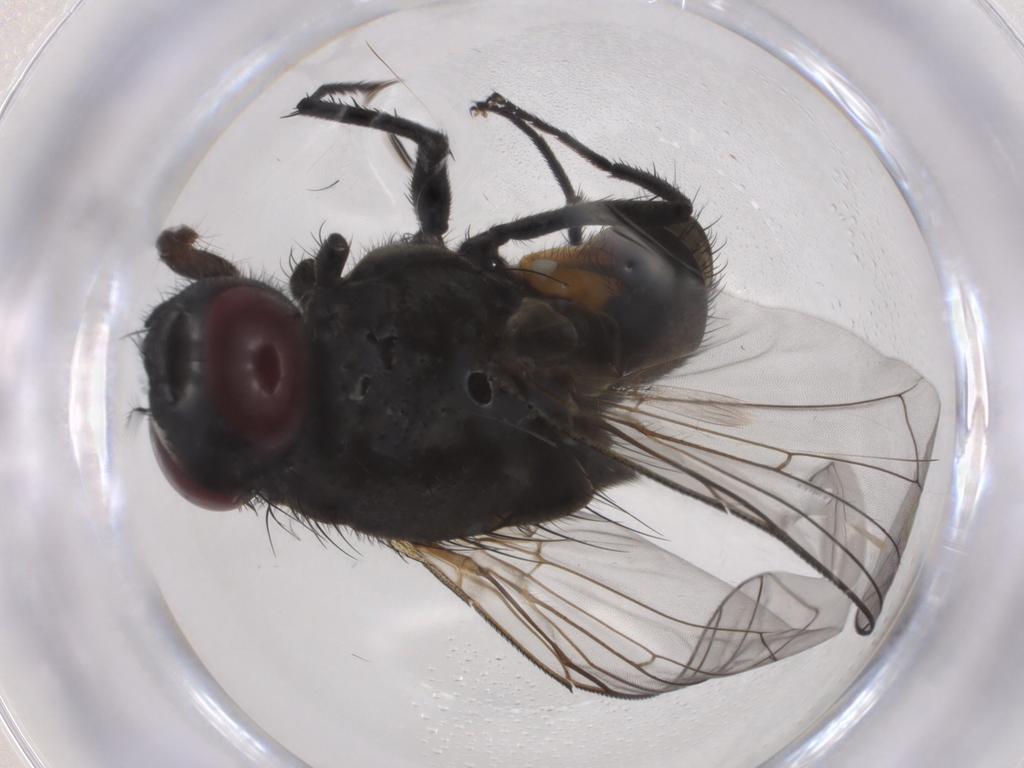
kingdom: Animalia
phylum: Arthropoda
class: Insecta
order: Diptera
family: Muscidae
